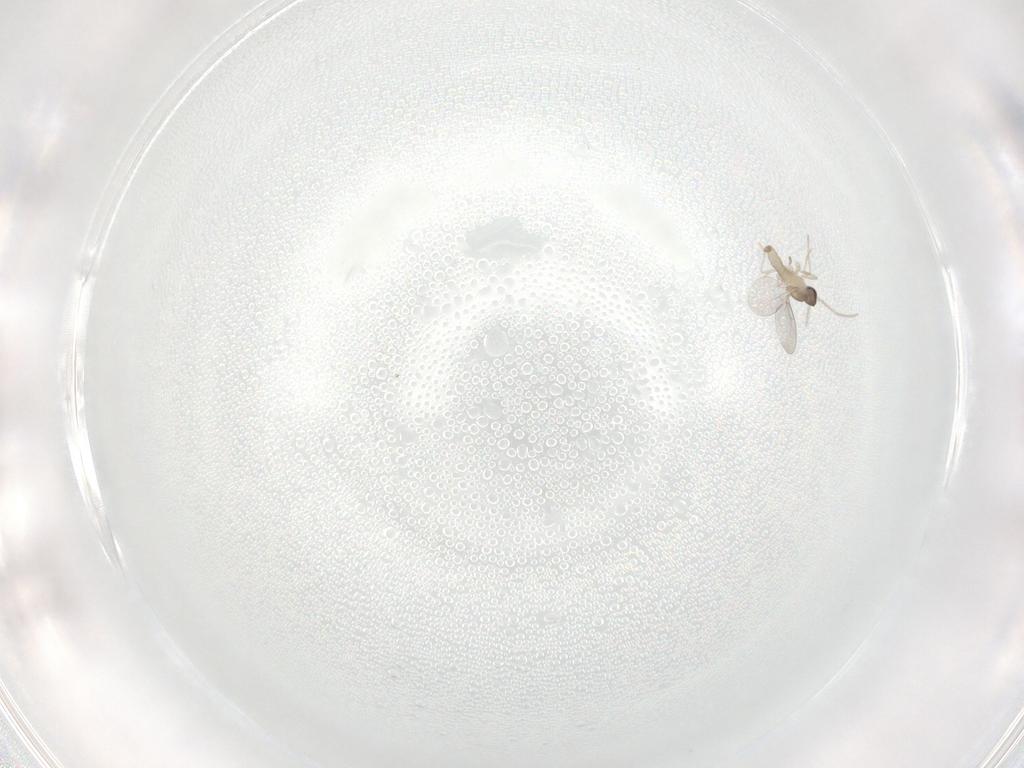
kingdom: Animalia
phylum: Arthropoda
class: Insecta
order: Diptera
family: Cecidomyiidae
